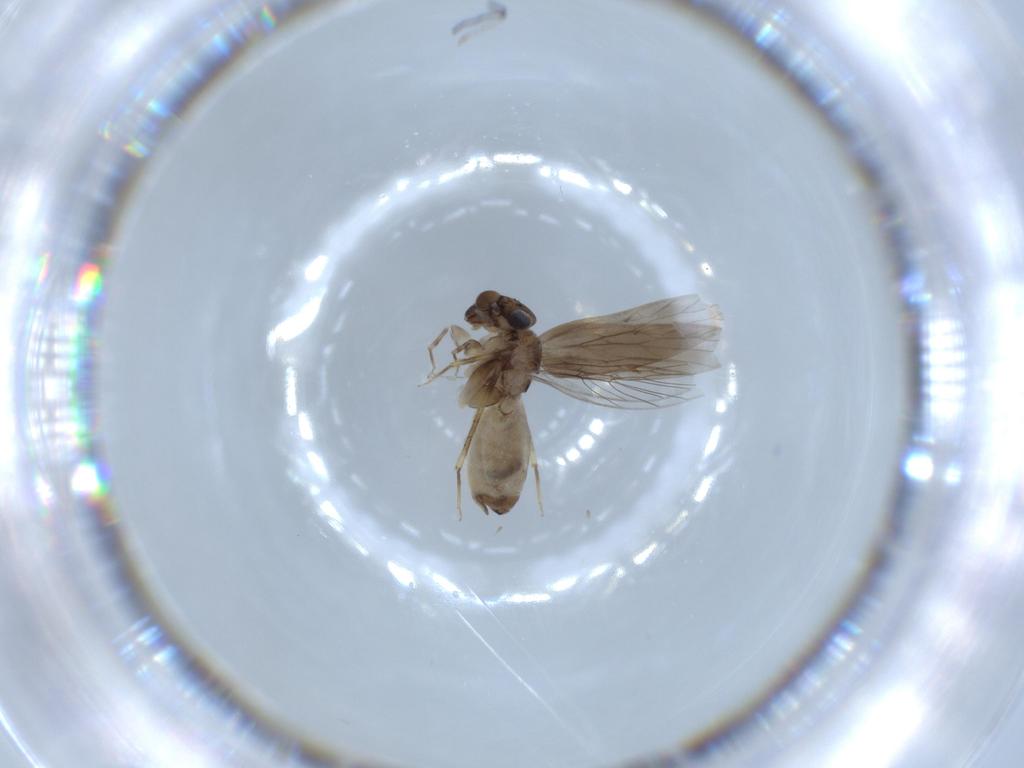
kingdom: Animalia
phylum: Arthropoda
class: Insecta
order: Psocodea
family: Lepidopsocidae
